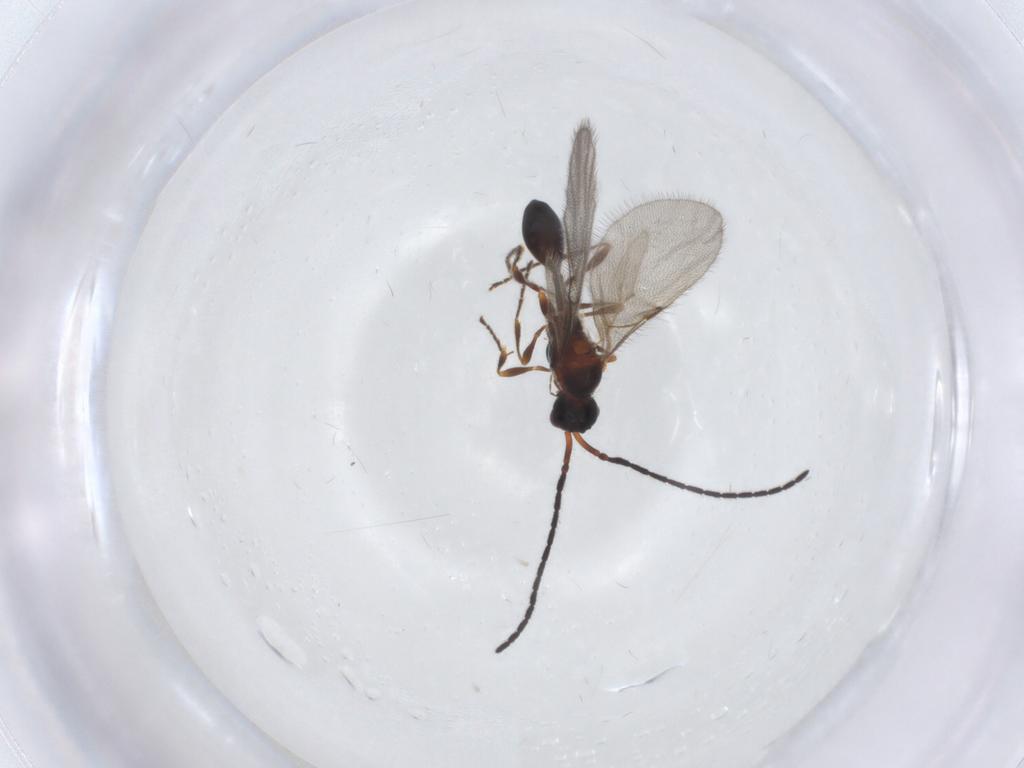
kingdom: Animalia
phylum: Arthropoda
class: Insecta
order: Hymenoptera
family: Diapriidae
